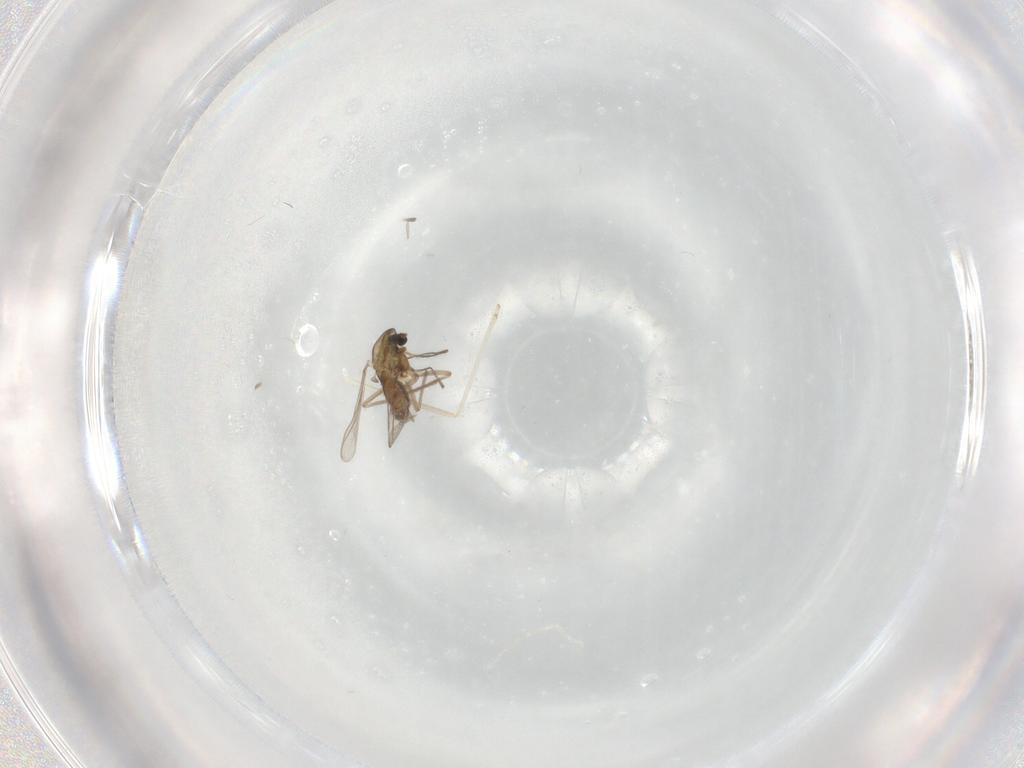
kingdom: Animalia
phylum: Arthropoda
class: Insecta
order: Diptera
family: Chironomidae
